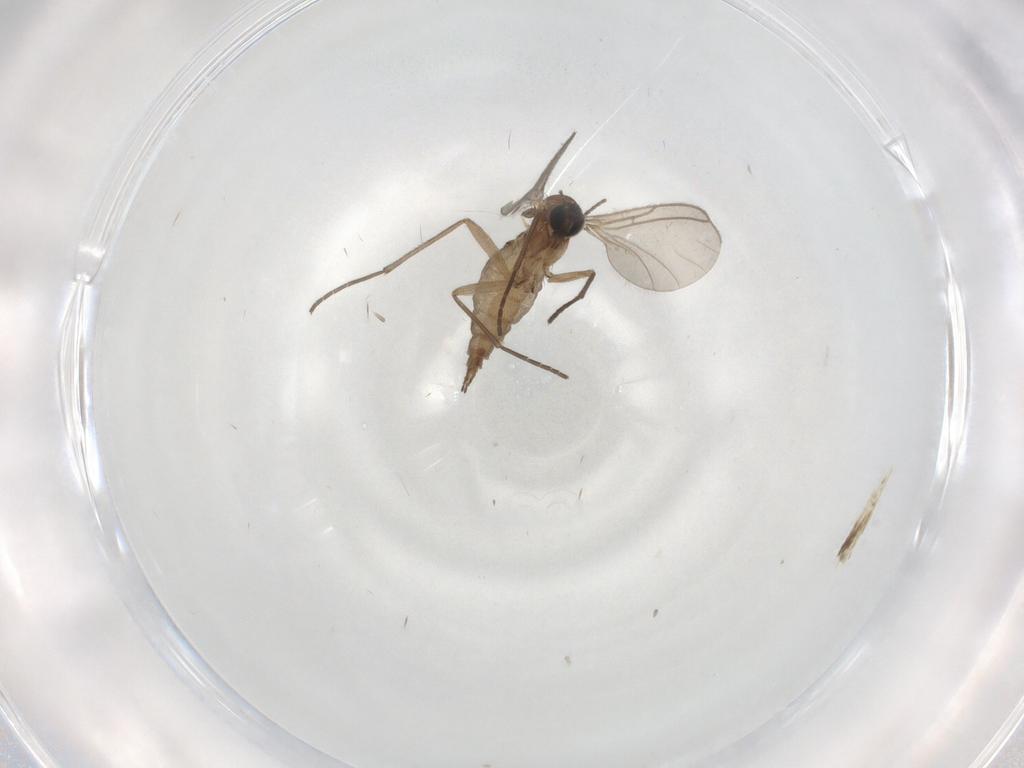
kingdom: Animalia
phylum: Arthropoda
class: Insecta
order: Diptera
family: Sciaridae
